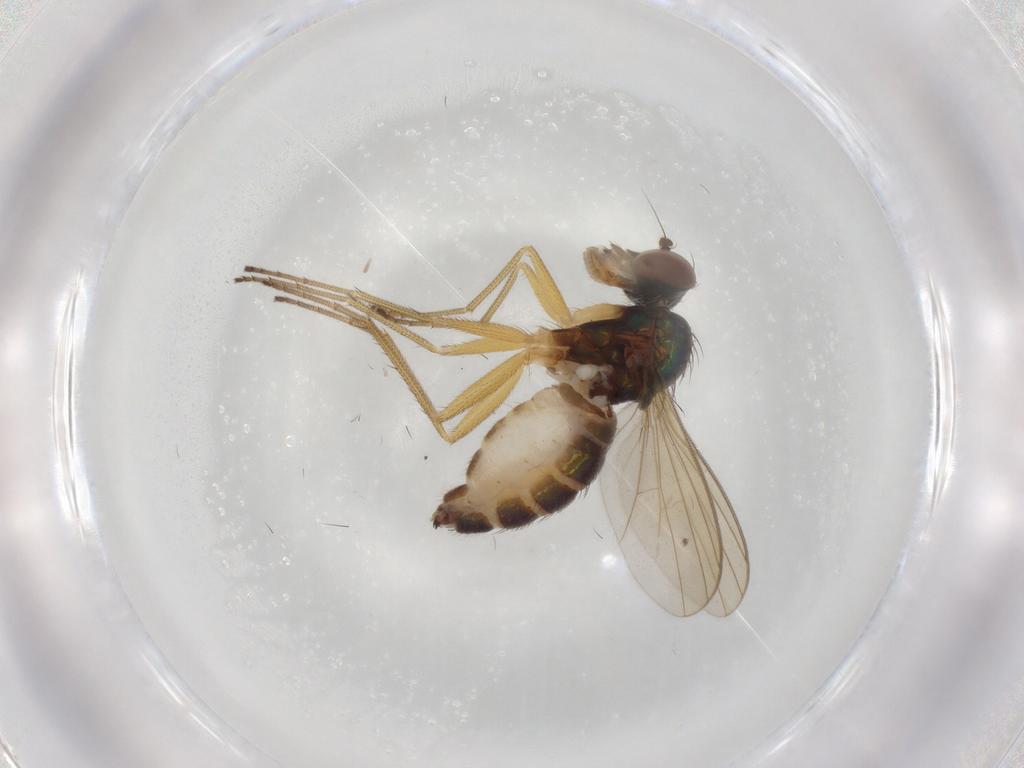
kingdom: Animalia
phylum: Arthropoda
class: Insecta
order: Diptera
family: Dolichopodidae
